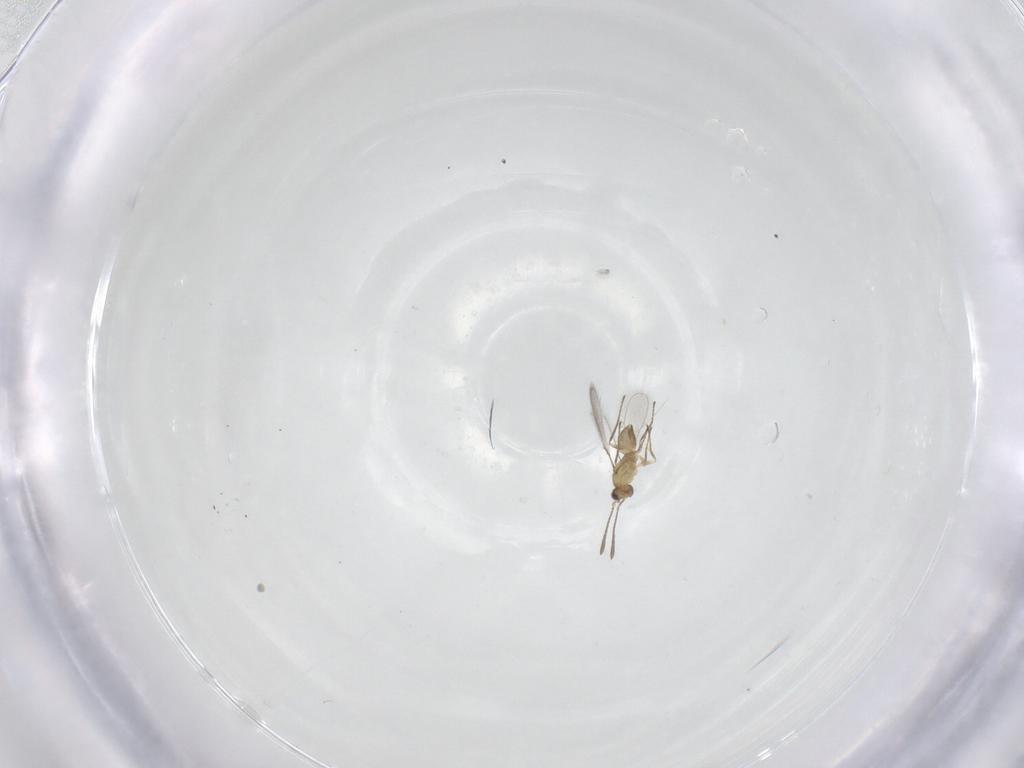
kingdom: Animalia
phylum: Arthropoda
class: Insecta
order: Hymenoptera
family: Mymaridae
